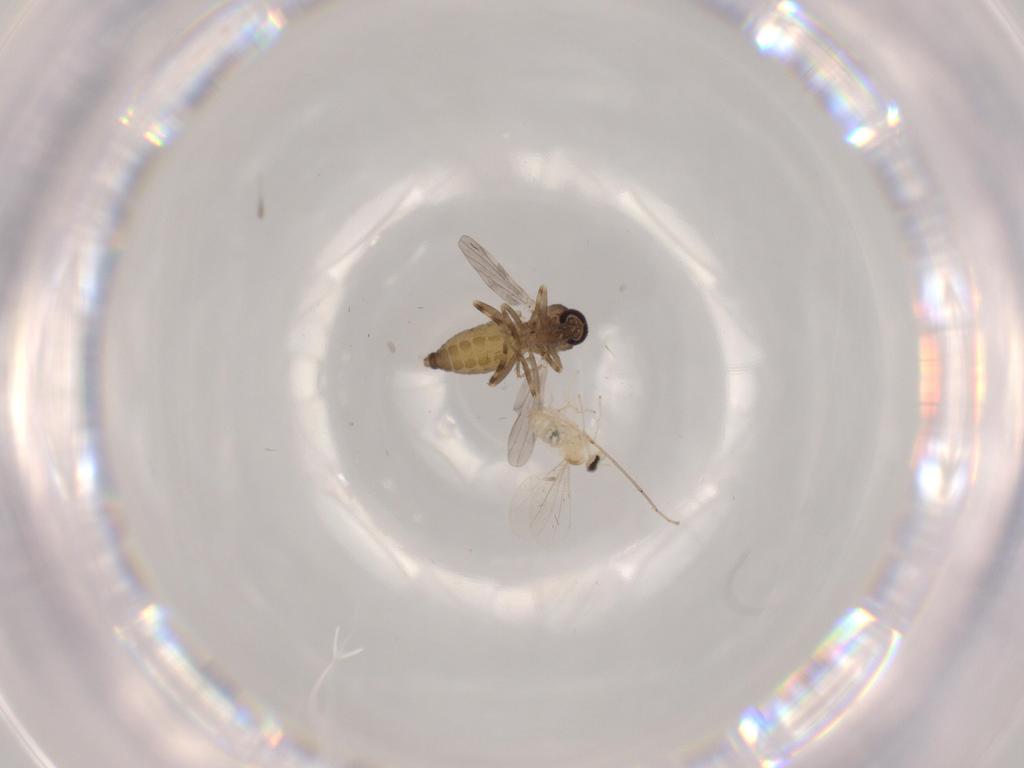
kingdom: Animalia
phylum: Arthropoda
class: Insecta
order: Diptera
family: Ceratopogonidae
